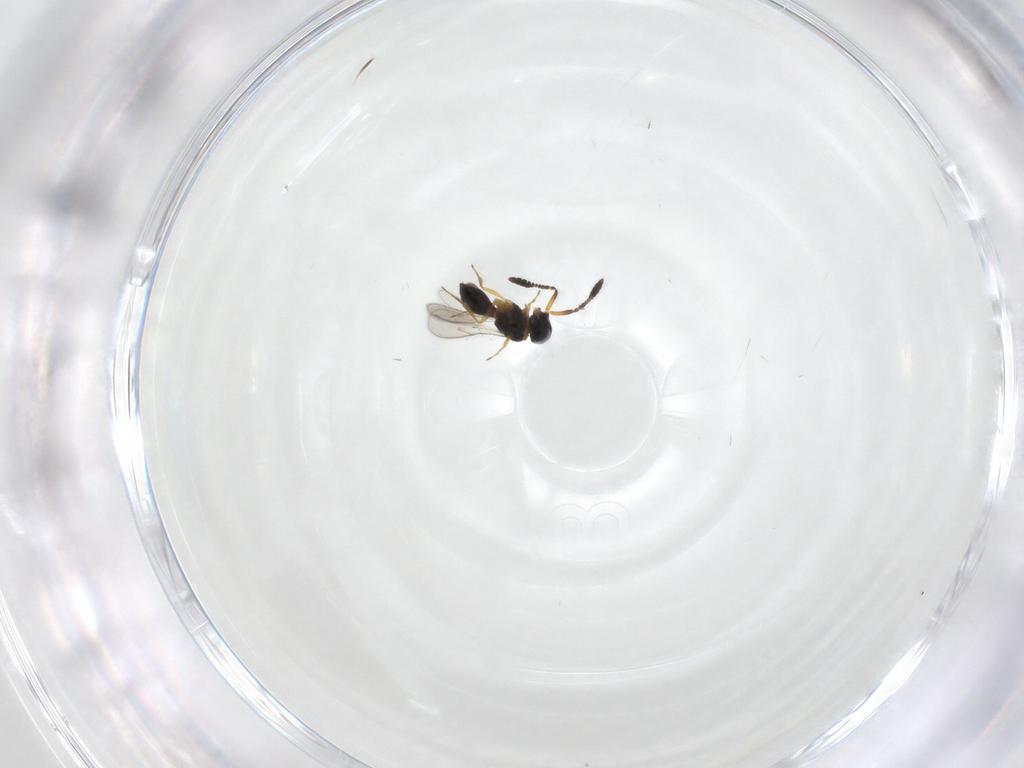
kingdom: Animalia
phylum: Arthropoda
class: Insecta
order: Hymenoptera
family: Scelionidae
